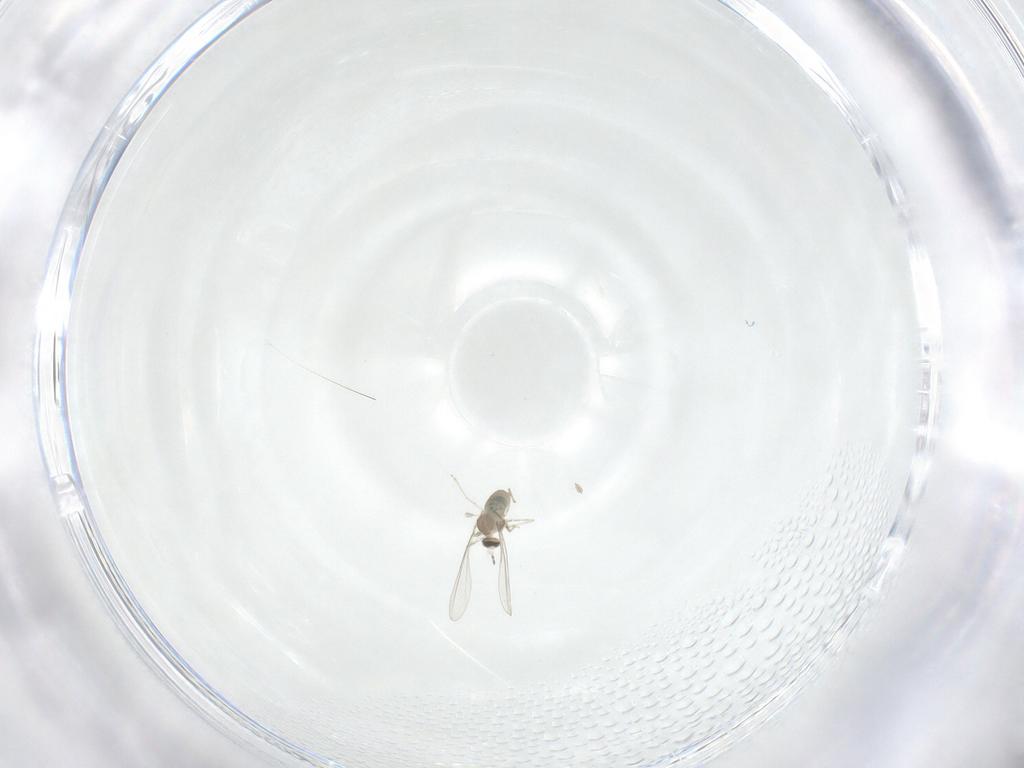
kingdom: Animalia
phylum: Arthropoda
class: Insecta
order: Diptera
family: Cecidomyiidae
